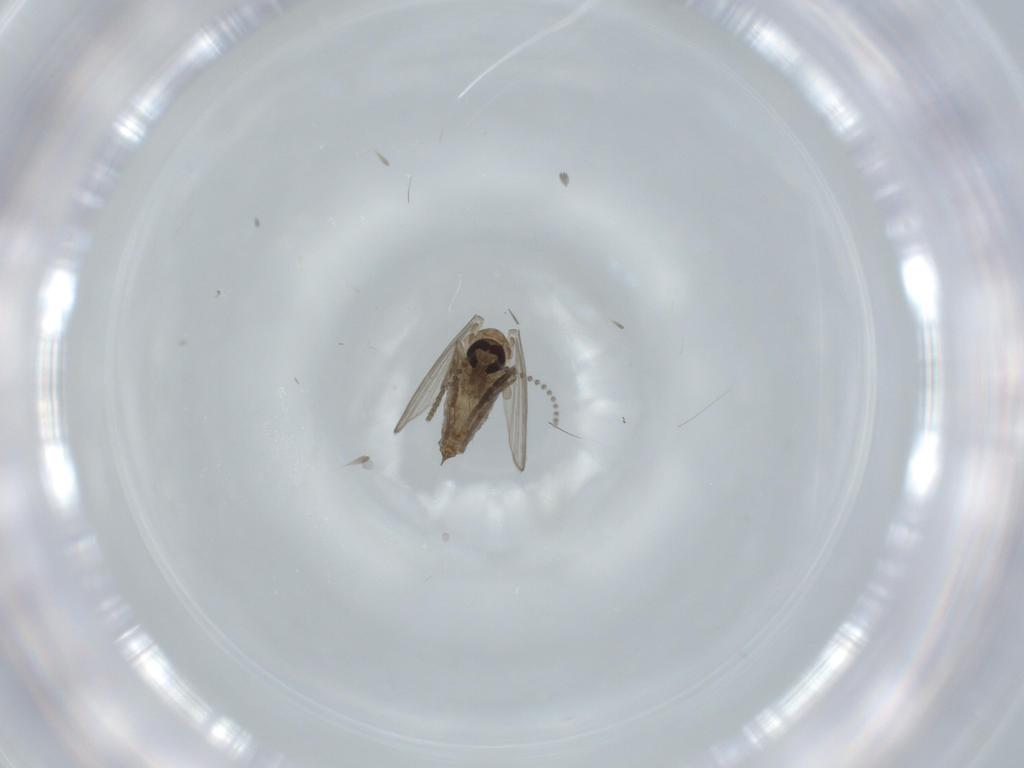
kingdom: Animalia
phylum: Arthropoda
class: Insecta
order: Diptera
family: Psychodidae
